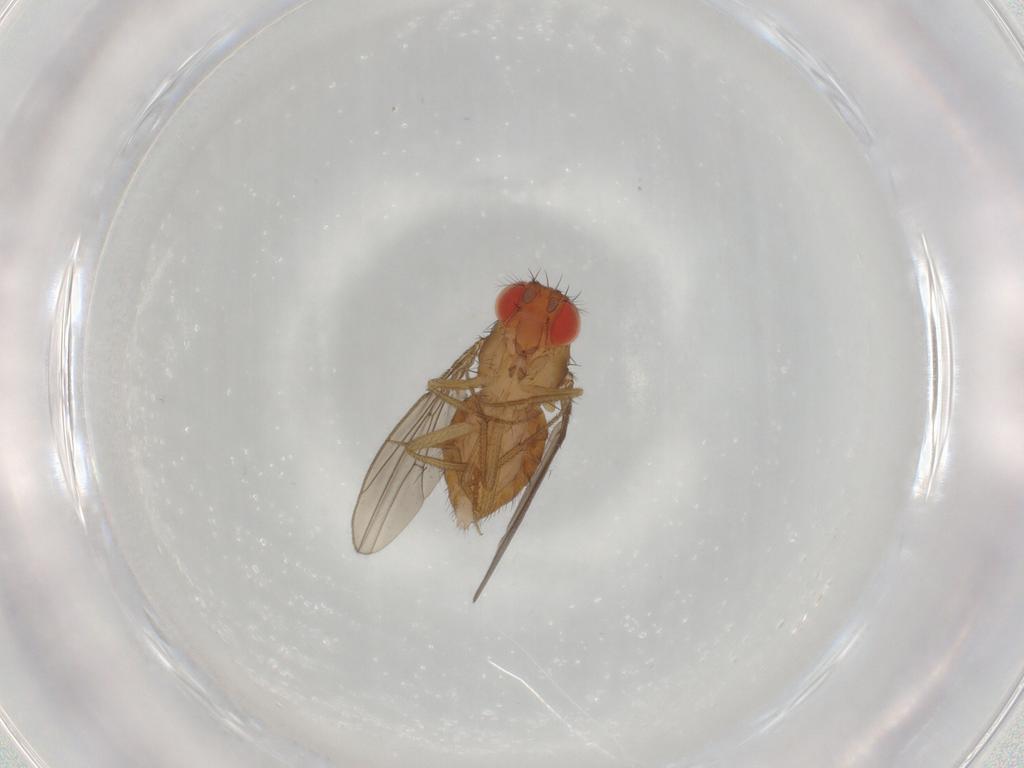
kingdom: Animalia
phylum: Arthropoda
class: Insecta
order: Diptera
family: Drosophilidae
